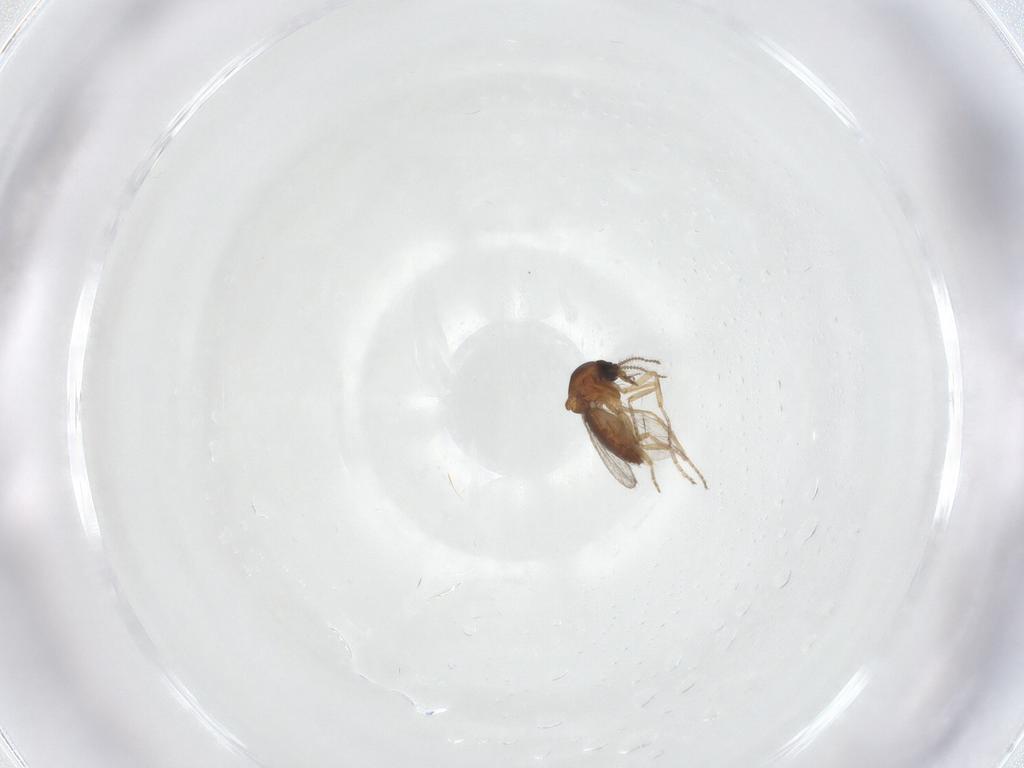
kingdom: Animalia
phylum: Arthropoda
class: Insecta
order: Diptera
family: Ceratopogonidae
